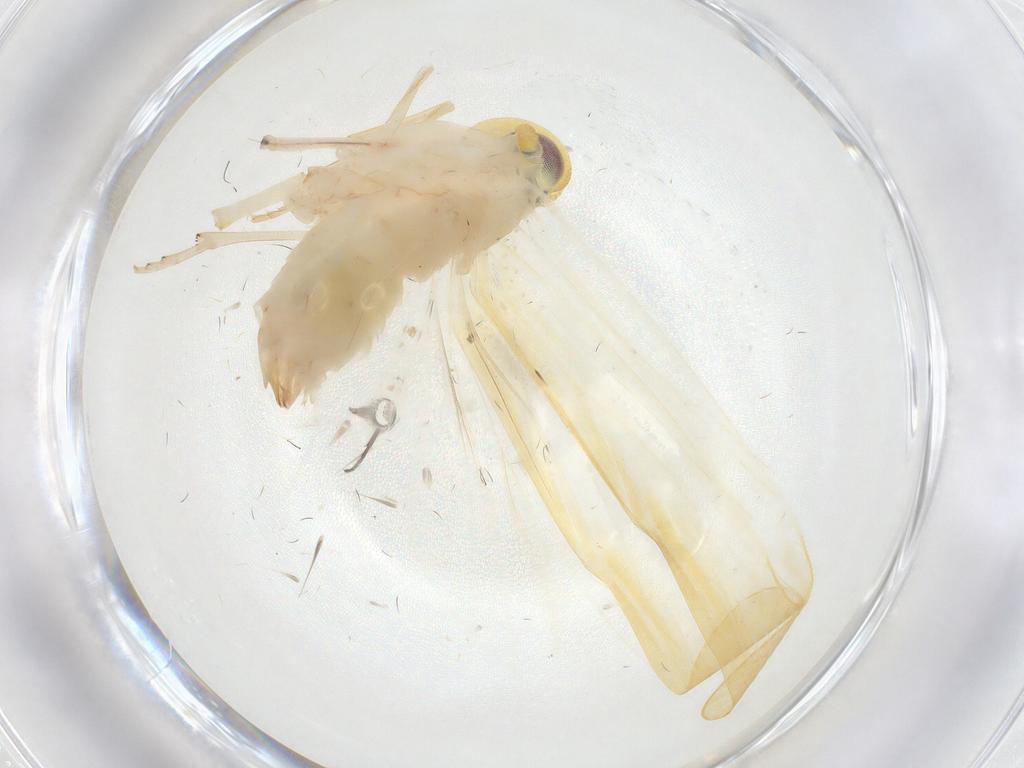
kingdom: Animalia
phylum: Arthropoda
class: Insecta
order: Hemiptera
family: Derbidae
